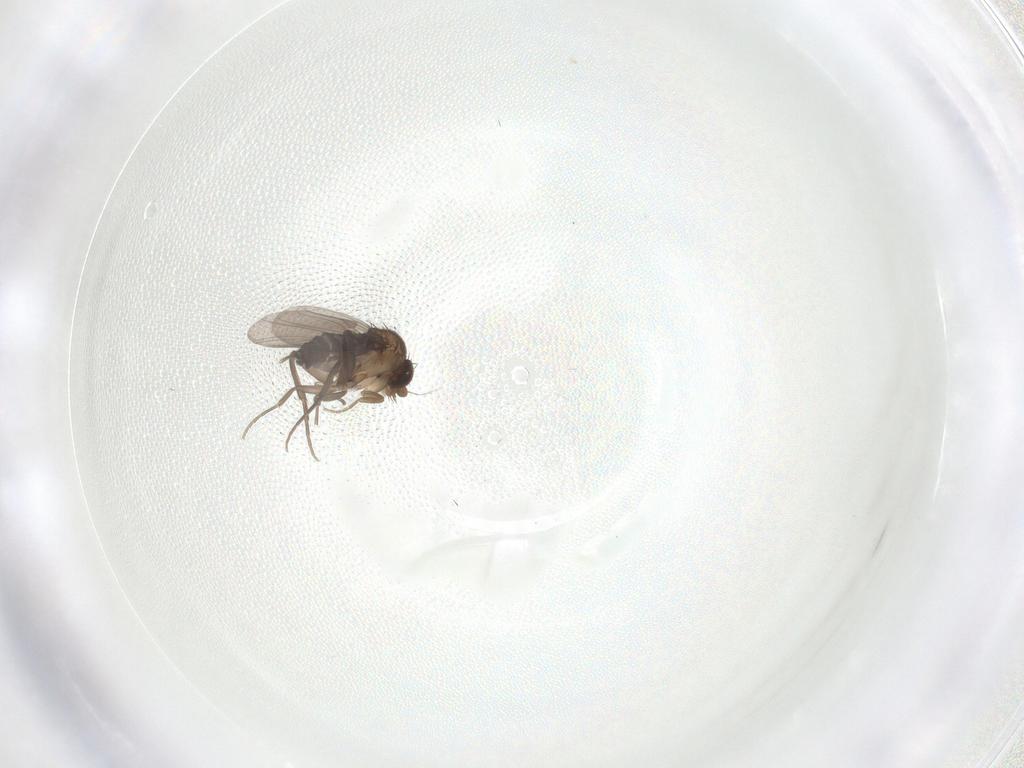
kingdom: Animalia
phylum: Arthropoda
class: Insecta
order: Diptera
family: Phoridae
